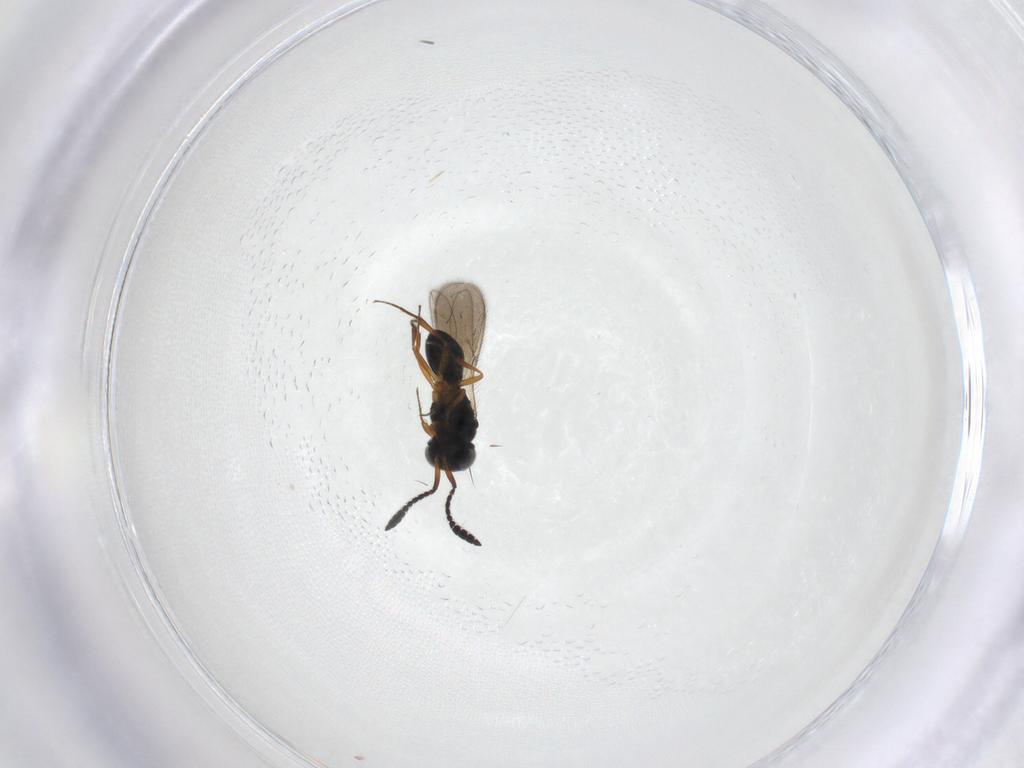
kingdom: Animalia
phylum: Arthropoda
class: Insecta
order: Hymenoptera
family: Scelionidae
